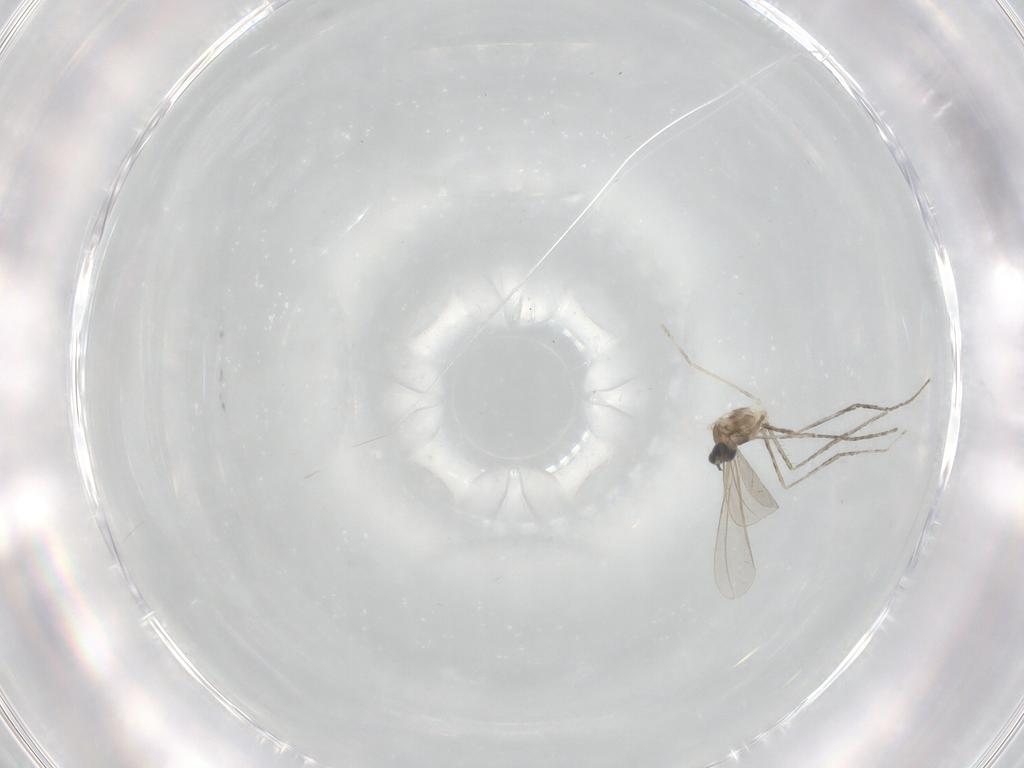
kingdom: Animalia
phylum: Arthropoda
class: Insecta
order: Diptera
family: Cecidomyiidae
